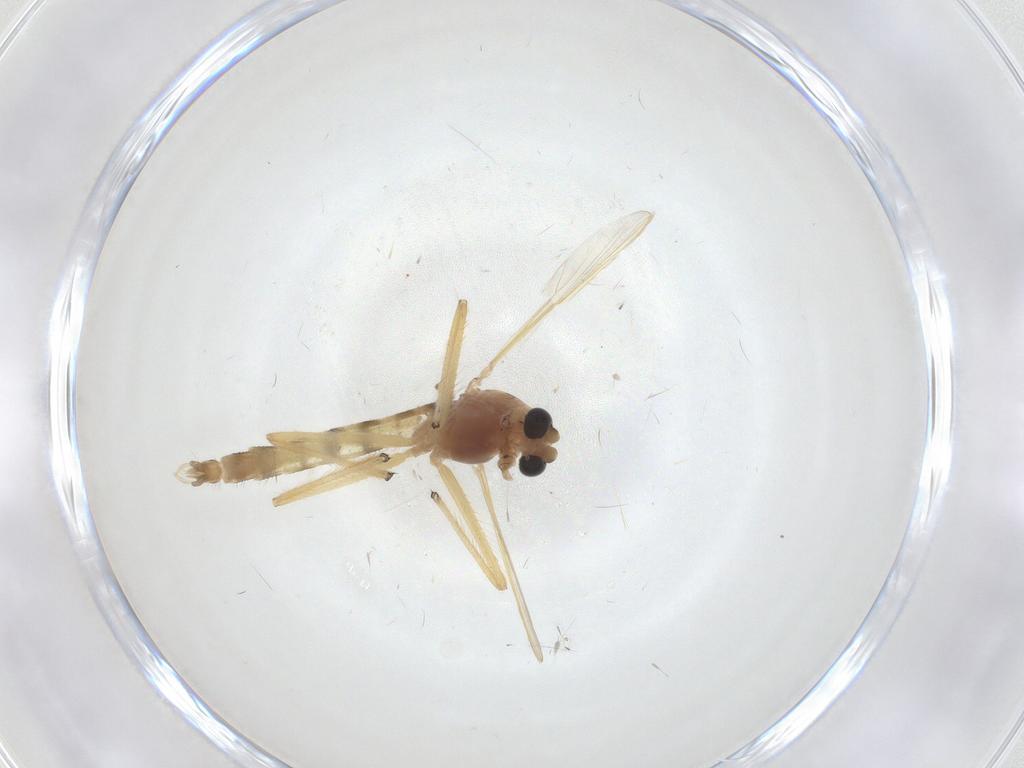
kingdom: Animalia
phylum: Arthropoda
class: Insecta
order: Diptera
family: Chironomidae
